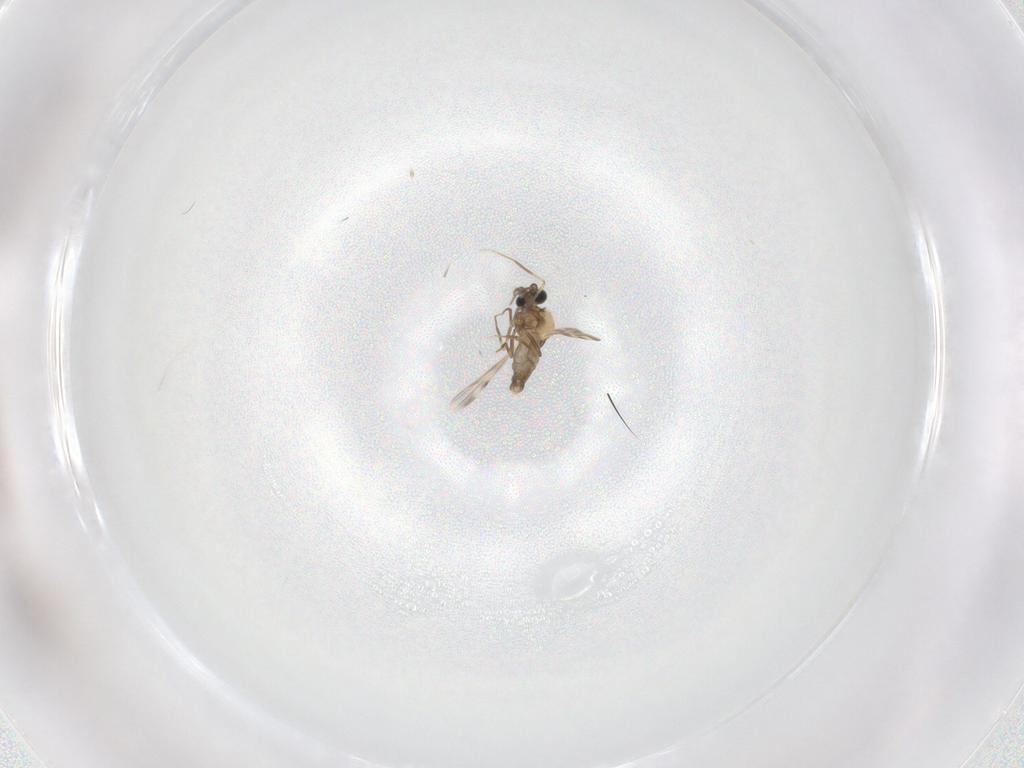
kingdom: Animalia
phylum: Arthropoda
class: Insecta
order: Diptera
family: Ceratopogonidae
